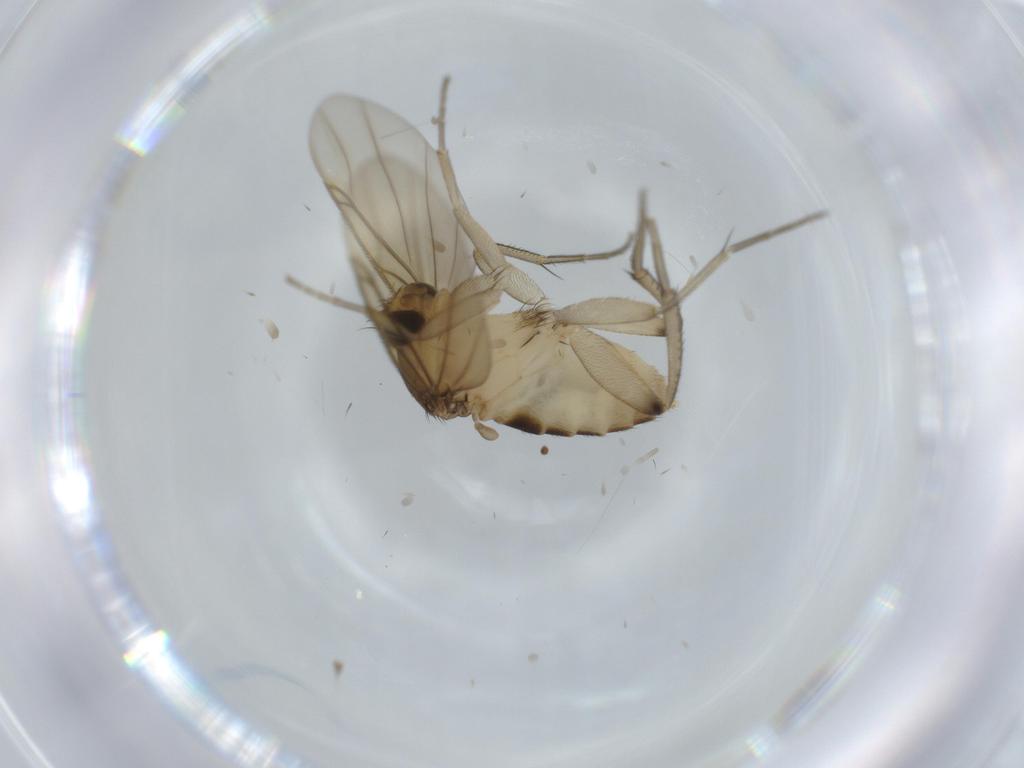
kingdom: Animalia
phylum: Arthropoda
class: Insecta
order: Diptera
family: Phoridae
